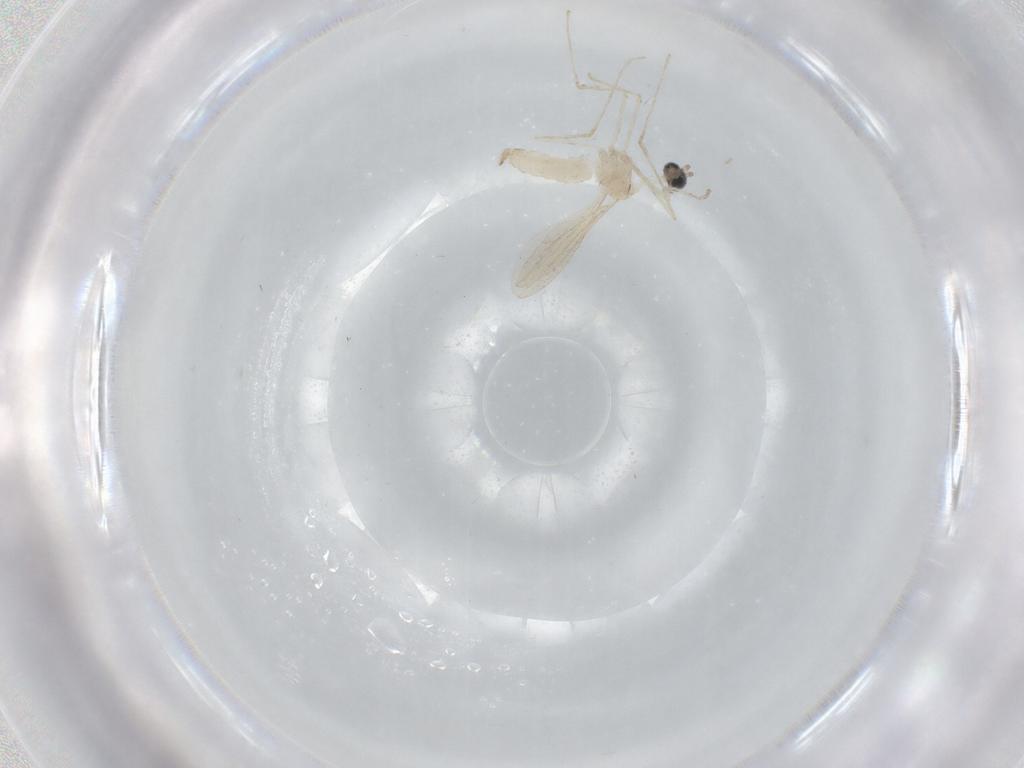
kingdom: Animalia
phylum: Arthropoda
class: Insecta
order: Diptera
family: Cecidomyiidae
